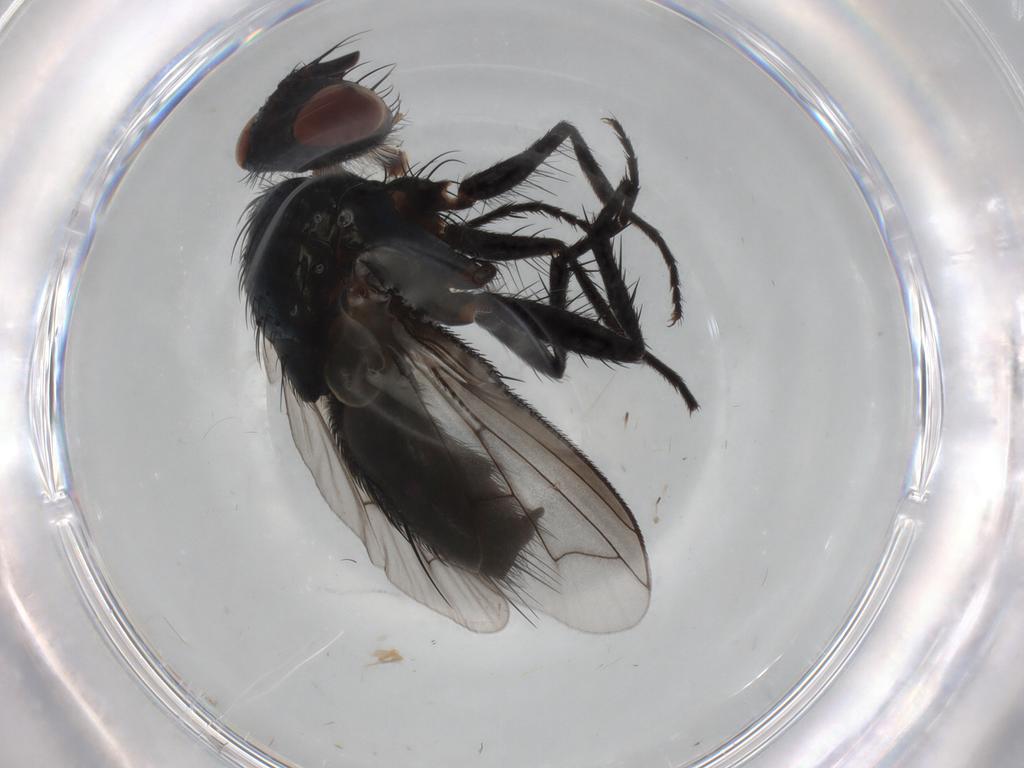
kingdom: Animalia
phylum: Arthropoda
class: Insecta
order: Diptera
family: Tachinidae
